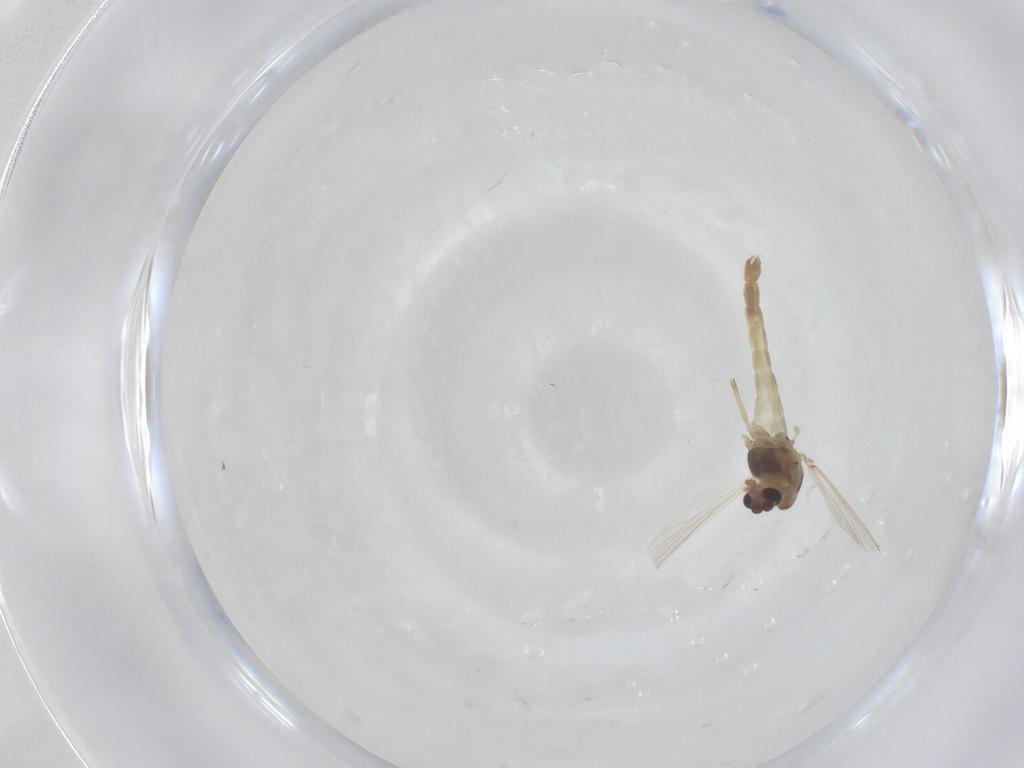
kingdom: Animalia
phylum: Arthropoda
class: Insecta
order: Diptera
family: Chironomidae
